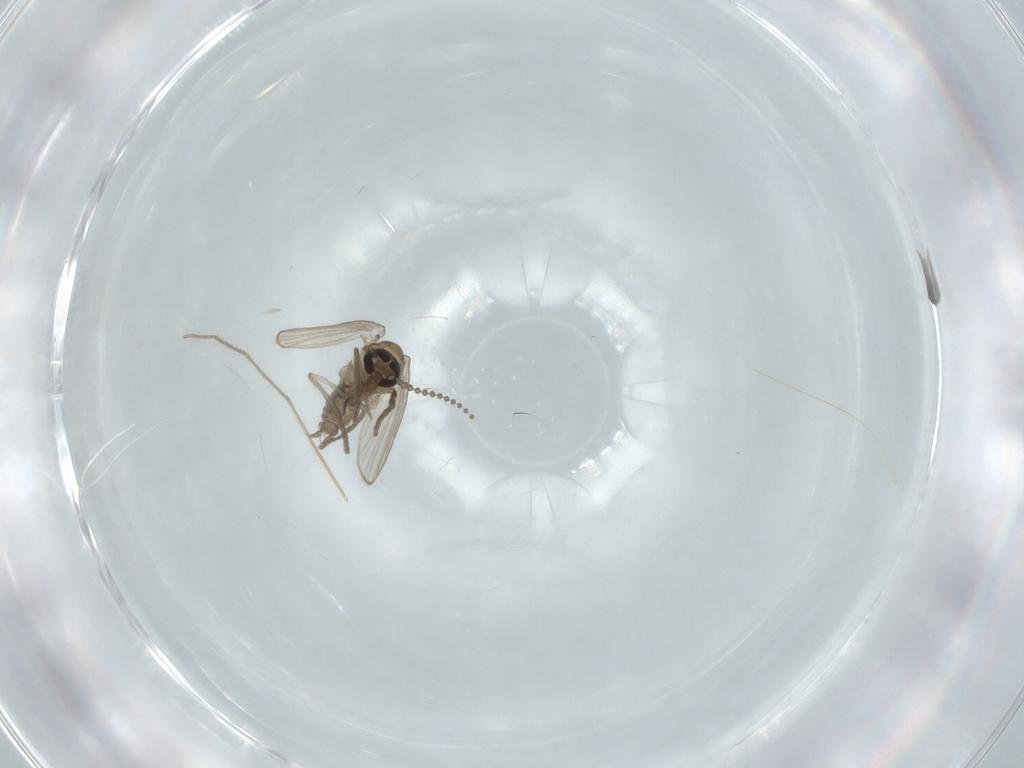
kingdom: Animalia
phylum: Arthropoda
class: Insecta
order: Diptera
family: Psychodidae
